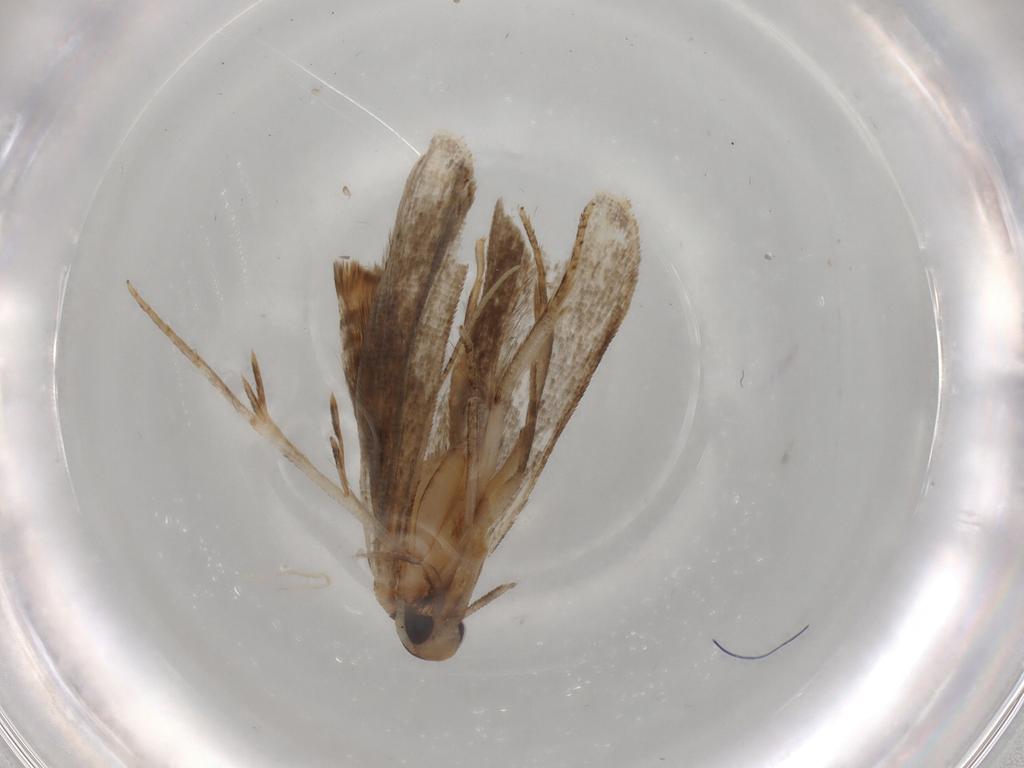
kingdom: Animalia
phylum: Arthropoda
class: Insecta
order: Lepidoptera
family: Gelechiidae
